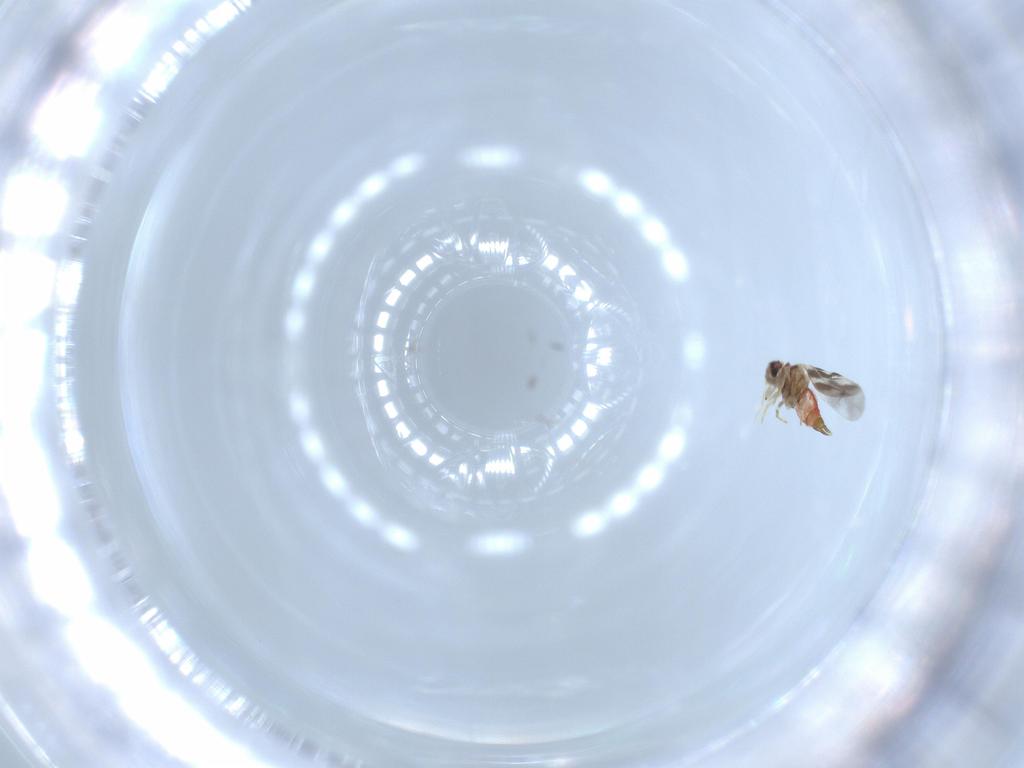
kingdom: Animalia
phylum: Arthropoda
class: Insecta
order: Hemiptera
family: Aleyrodidae
